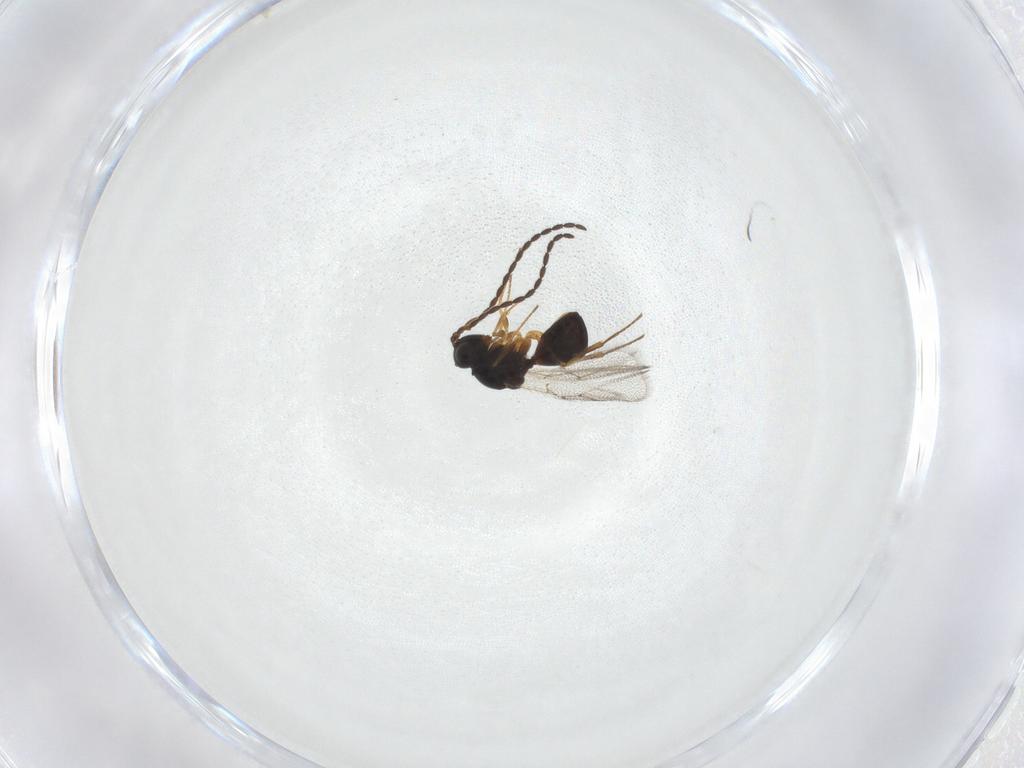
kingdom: Animalia
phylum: Arthropoda
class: Insecta
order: Hymenoptera
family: Figitidae
